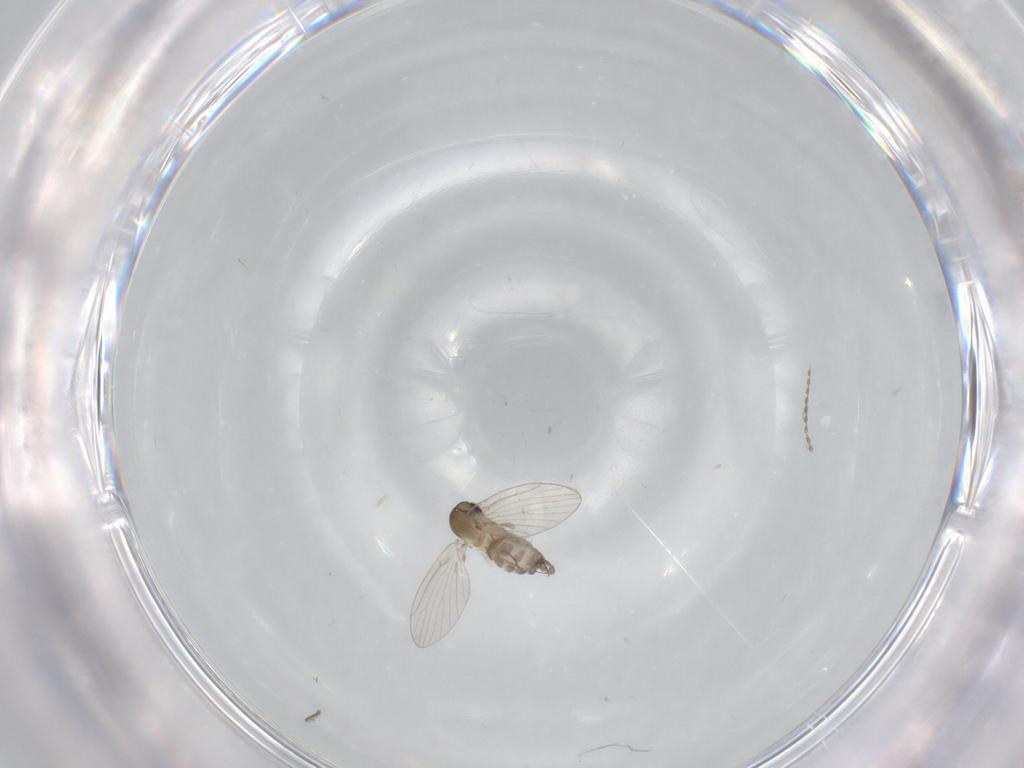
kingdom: Animalia
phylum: Arthropoda
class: Insecta
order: Diptera
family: Psychodidae
